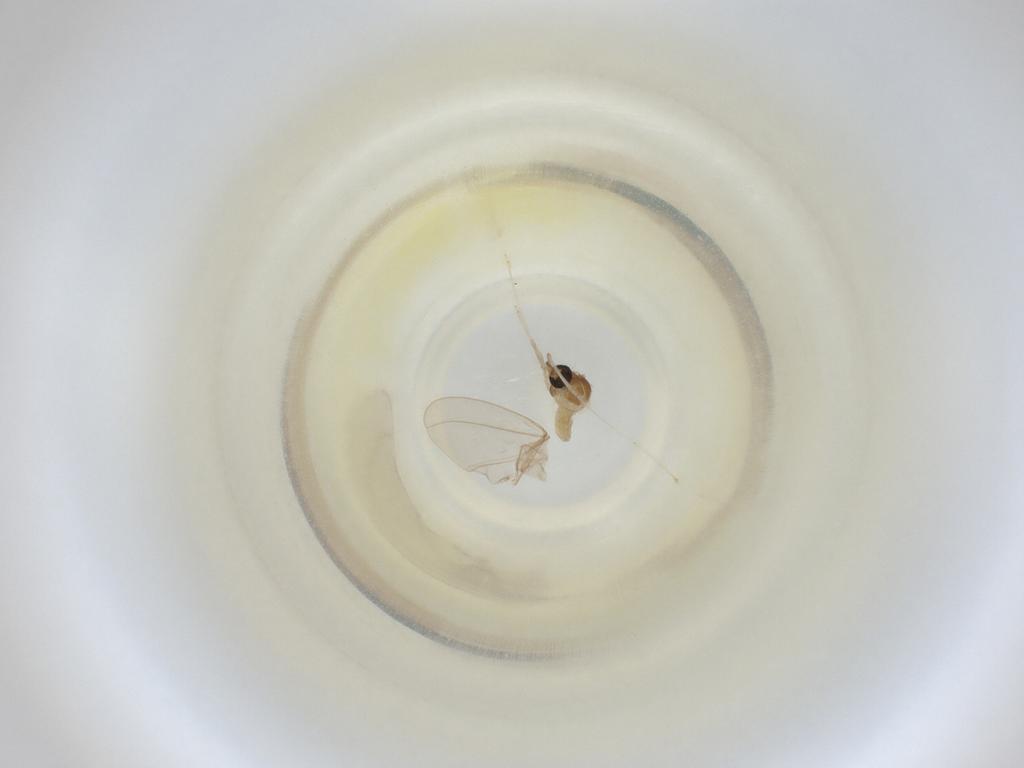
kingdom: Animalia
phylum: Arthropoda
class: Insecta
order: Diptera
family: Cecidomyiidae
